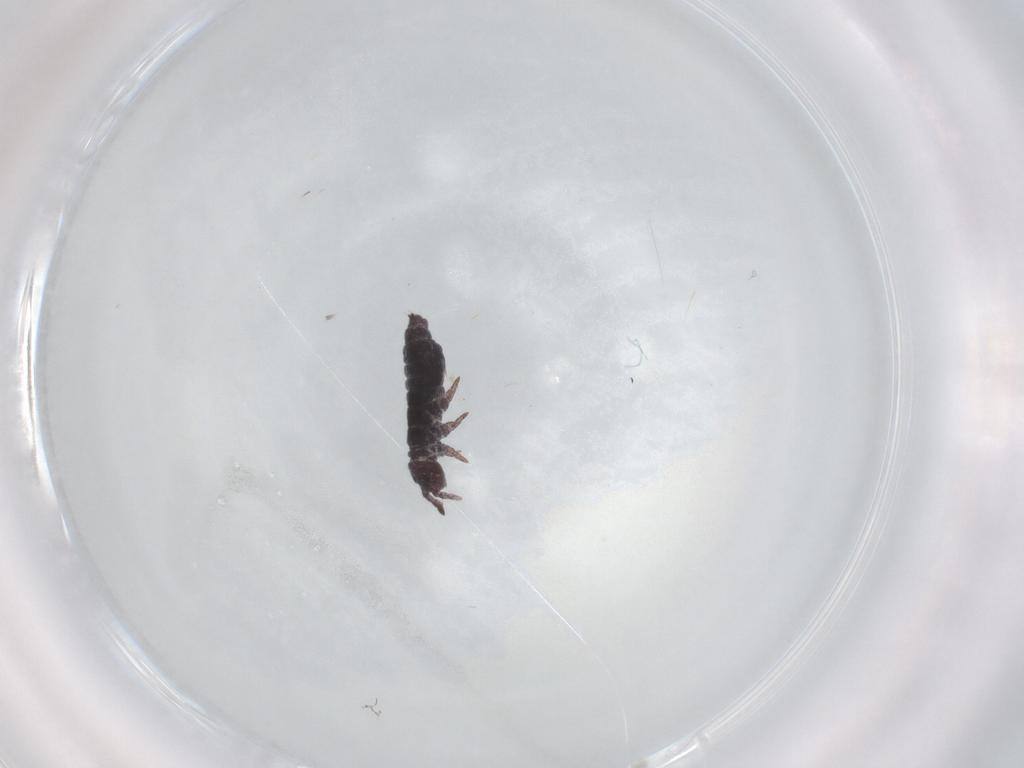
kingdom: Animalia
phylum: Arthropoda
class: Collembola
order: Poduromorpha
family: Hypogastruridae
